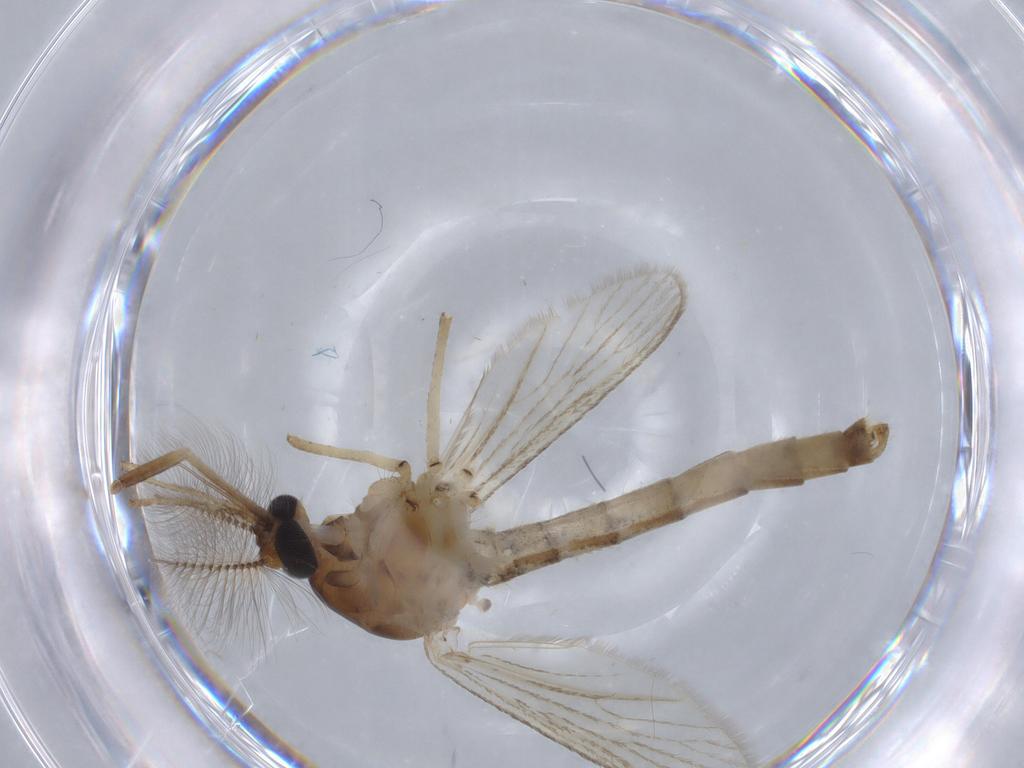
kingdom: Animalia
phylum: Arthropoda
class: Insecta
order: Diptera
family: Culicidae
